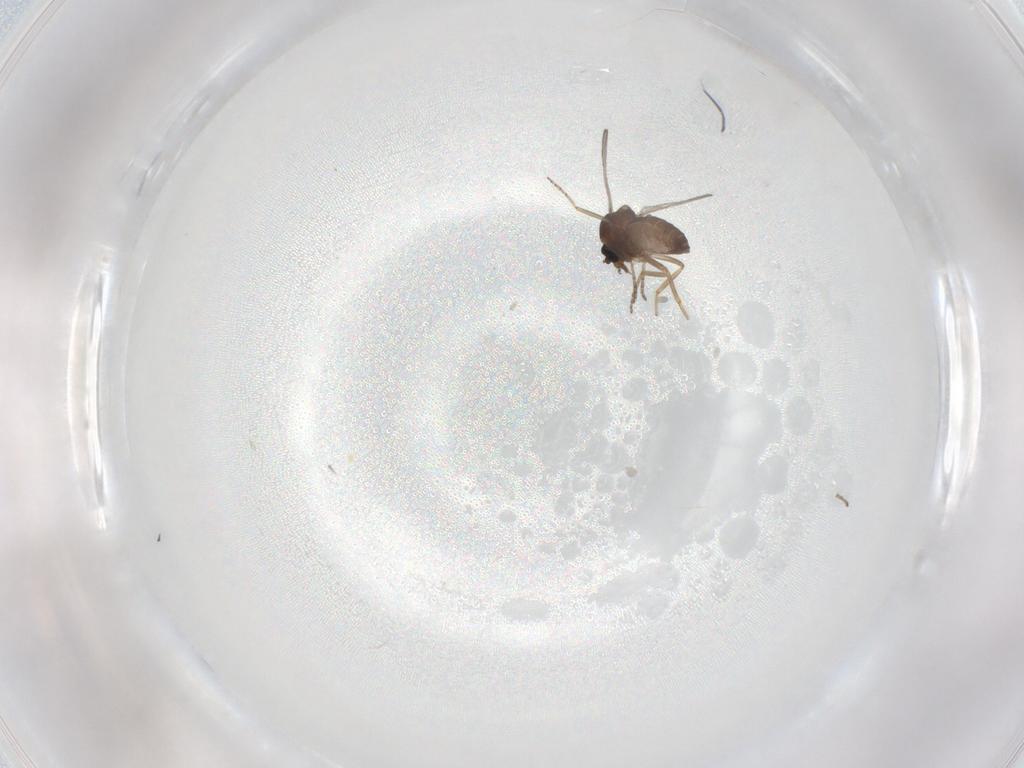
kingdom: Animalia
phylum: Arthropoda
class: Insecta
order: Diptera
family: Ceratopogonidae
